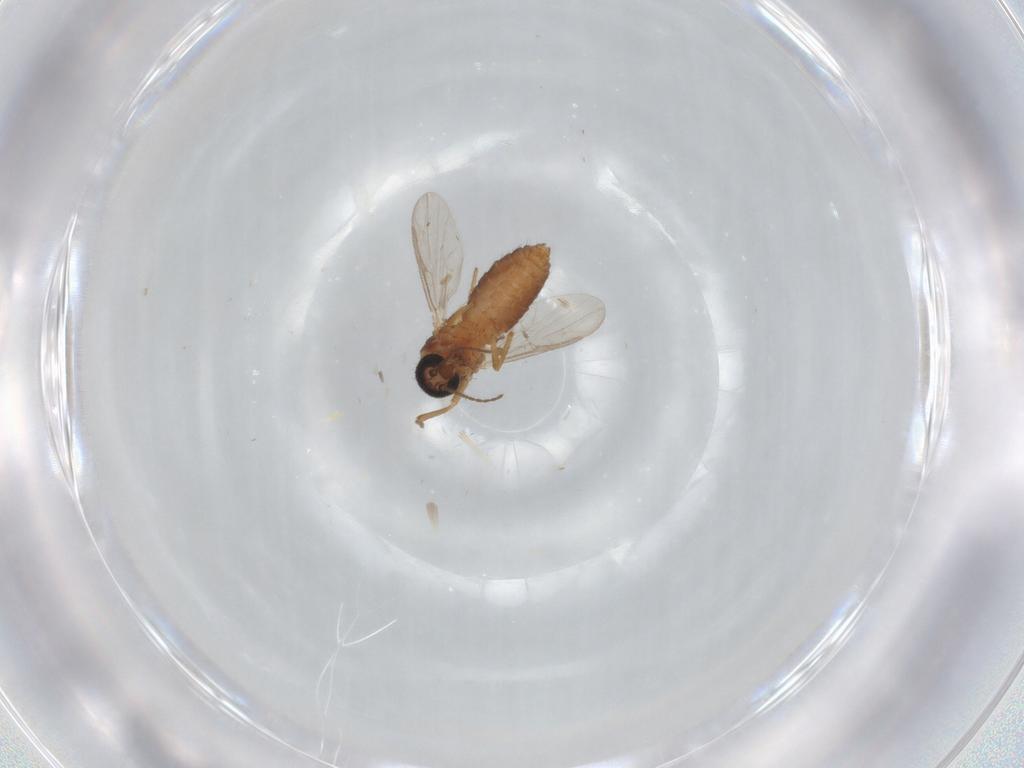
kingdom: Animalia
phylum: Arthropoda
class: Insecta
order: Diptera
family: Ceratopogonidae
